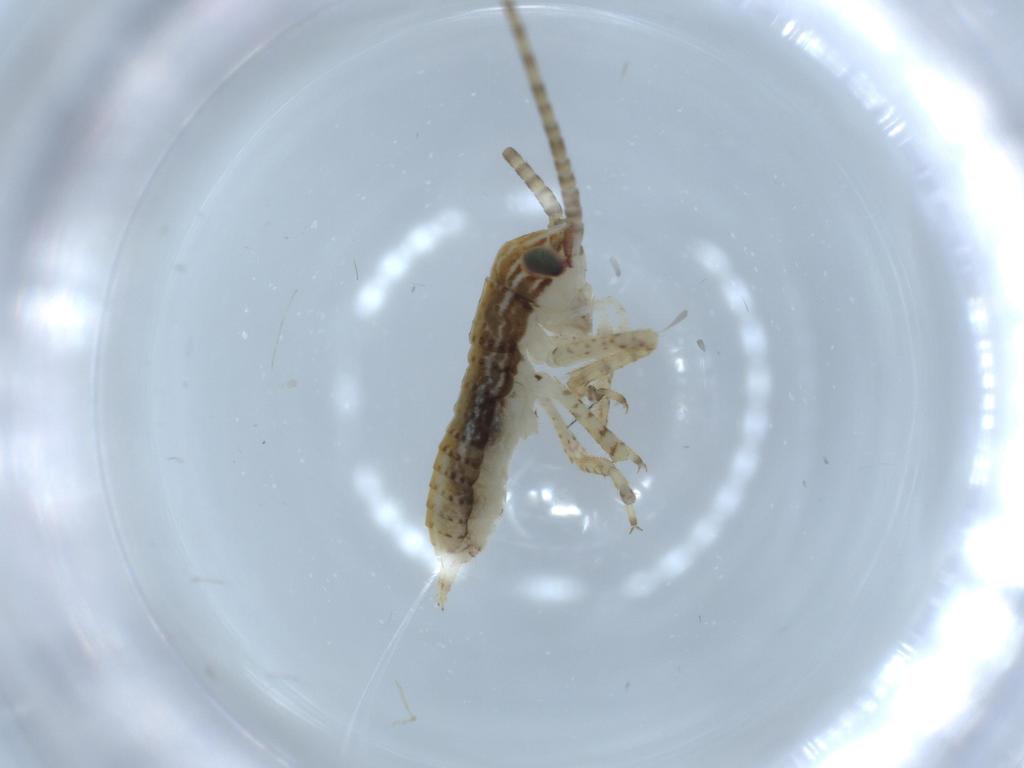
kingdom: Animalia
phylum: Arthropoda
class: Insecta
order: Orthoptera
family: Gryllidae
